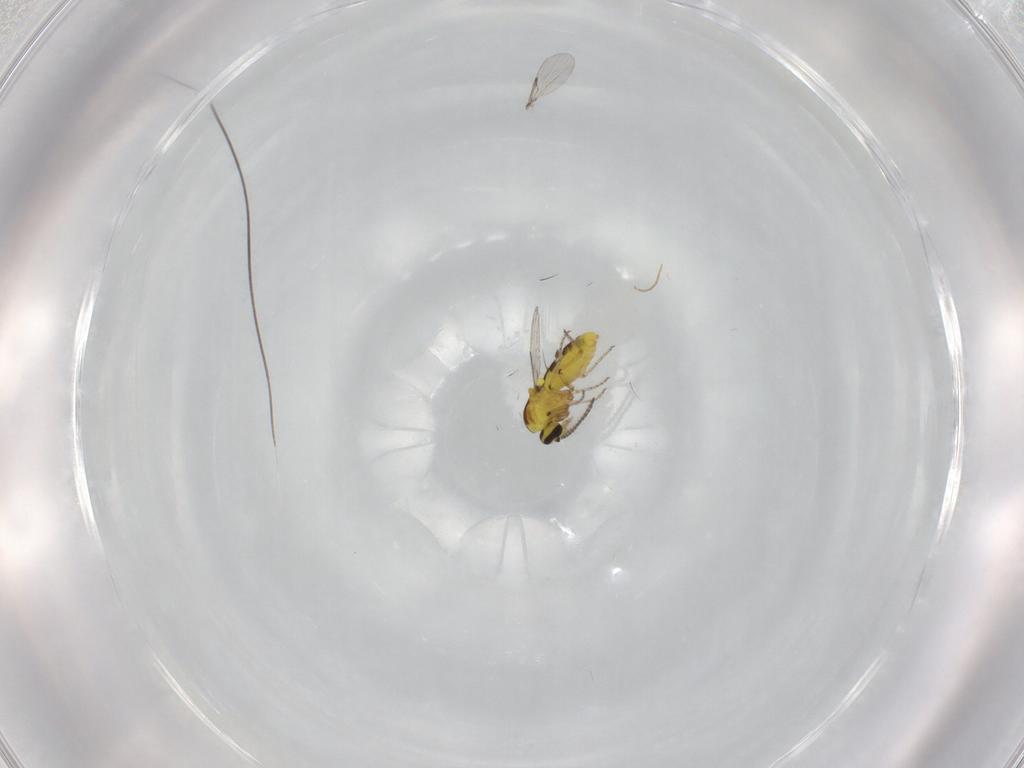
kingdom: Animalia
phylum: Arthropoda
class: Insecta
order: Diptera
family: Ceratopogonidae
